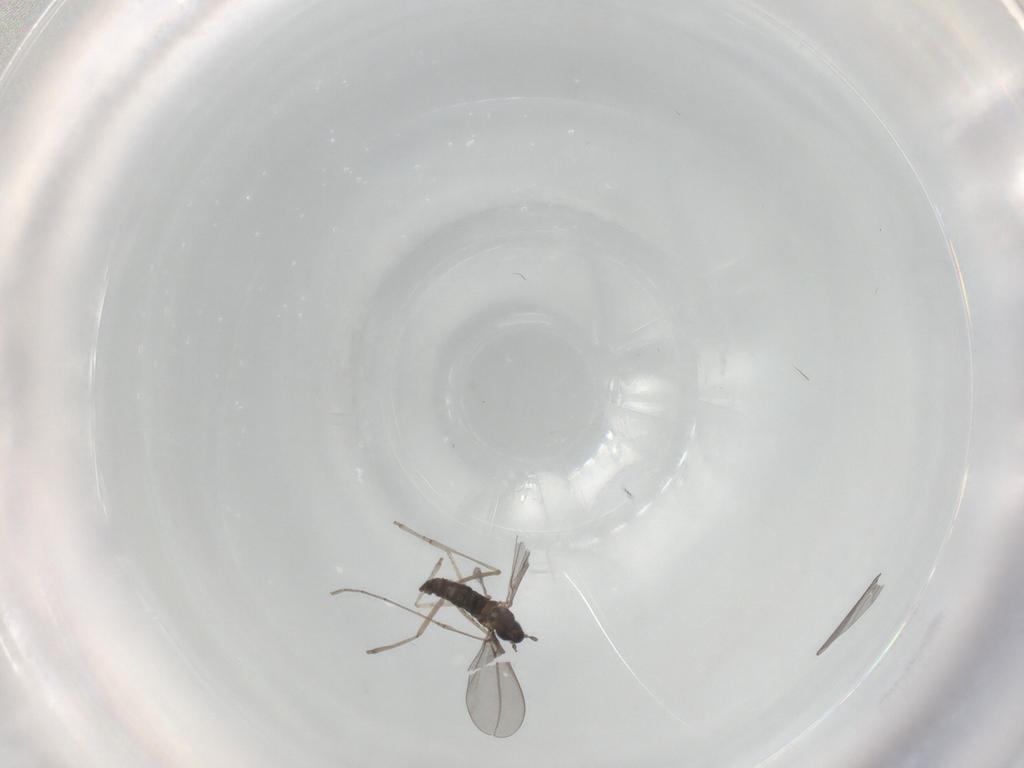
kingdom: Animalia
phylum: Arthropoda
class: Insecta
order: Diptera
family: Cecidomyiidae
